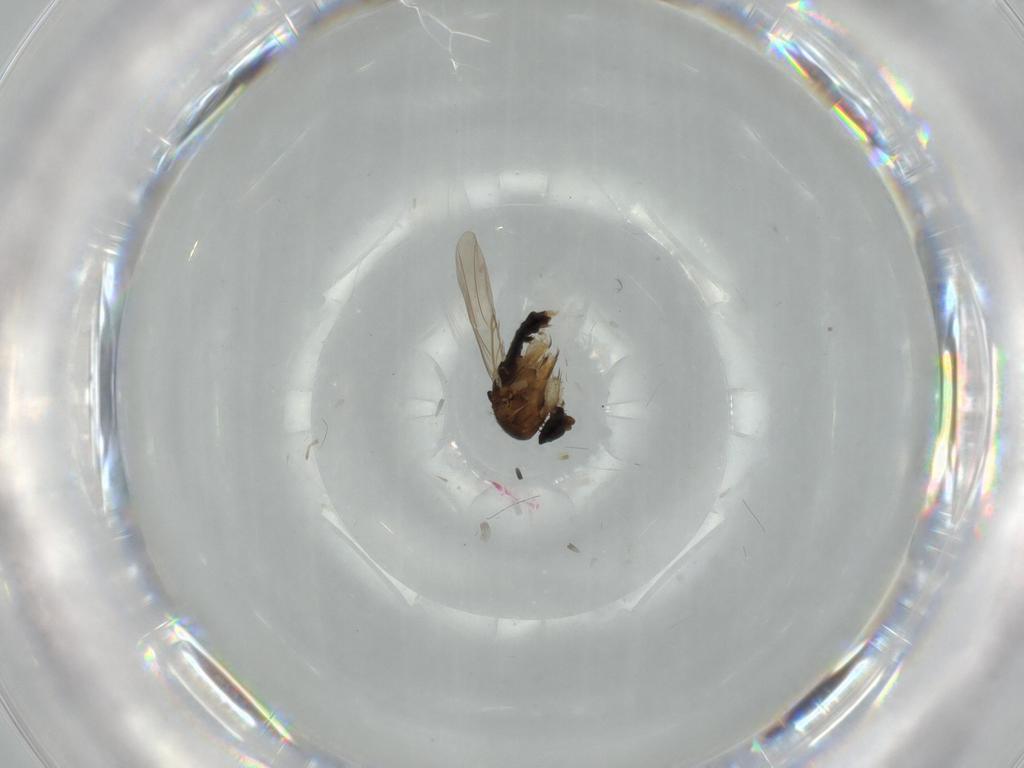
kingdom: Animalia
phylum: Arthropoda
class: Insecta
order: Diptera
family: Phoridae
